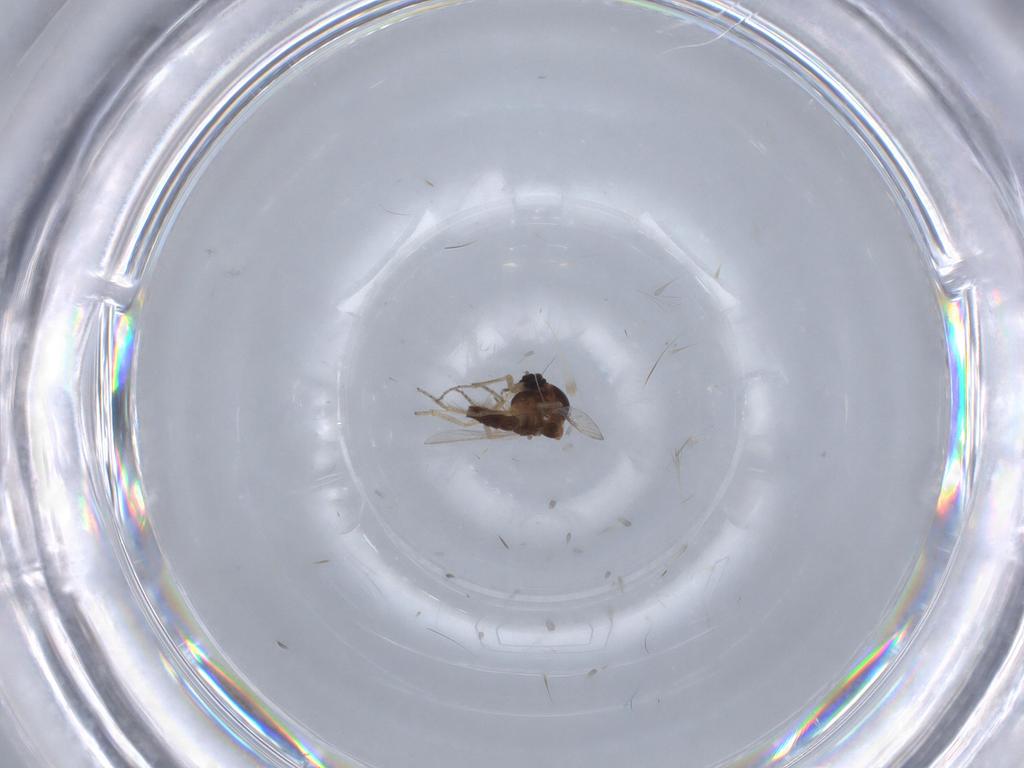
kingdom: Animalia
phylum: Arthropoda
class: Insecta
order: Diptera
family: Ceratopogonidae
